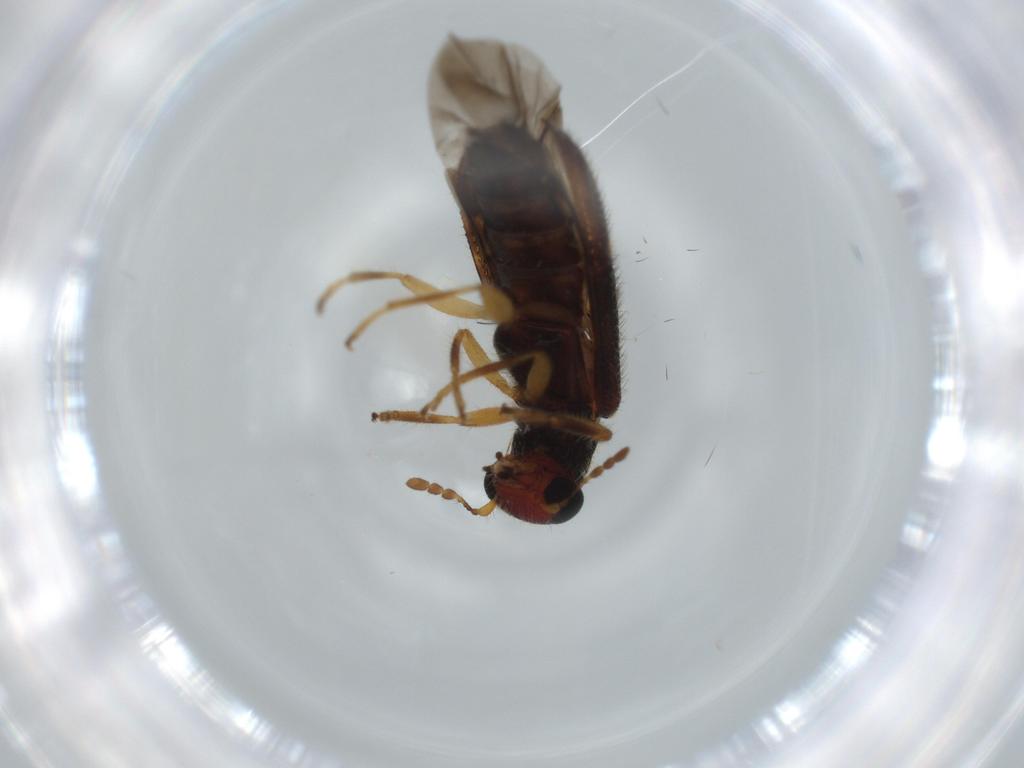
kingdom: Animalia
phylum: Arthropoda
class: Insecta
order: Coleoptera
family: Cleridae
